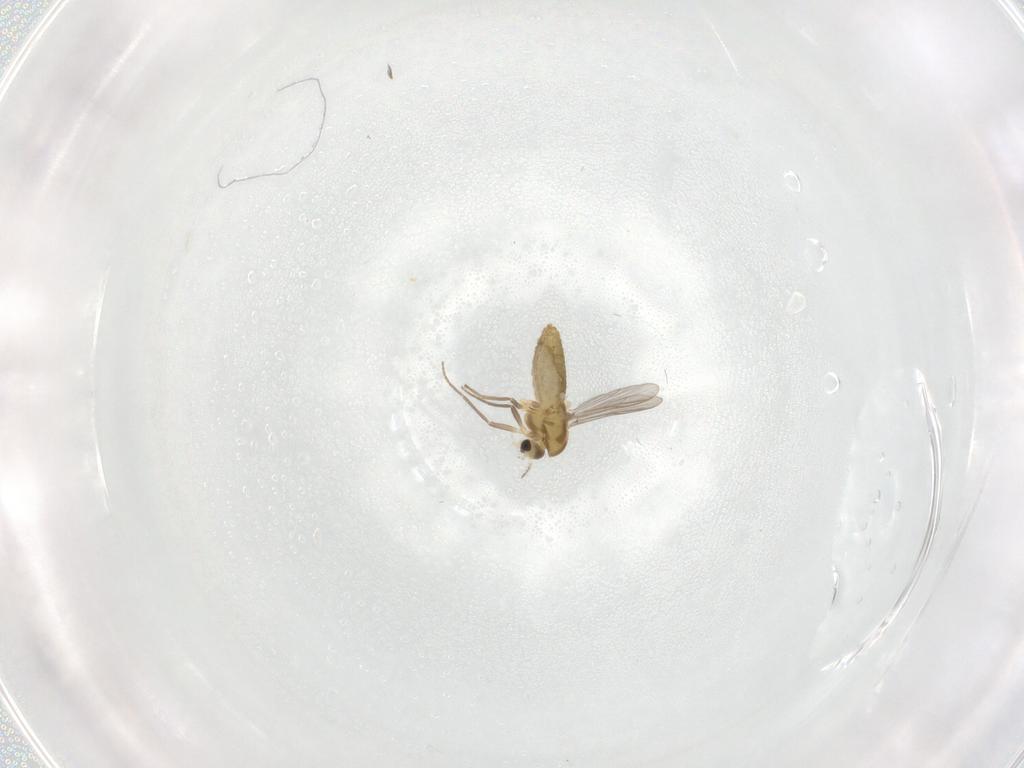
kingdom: Animalia
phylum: Arthropoda
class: Insecta
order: Diptera
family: Chironomidae
